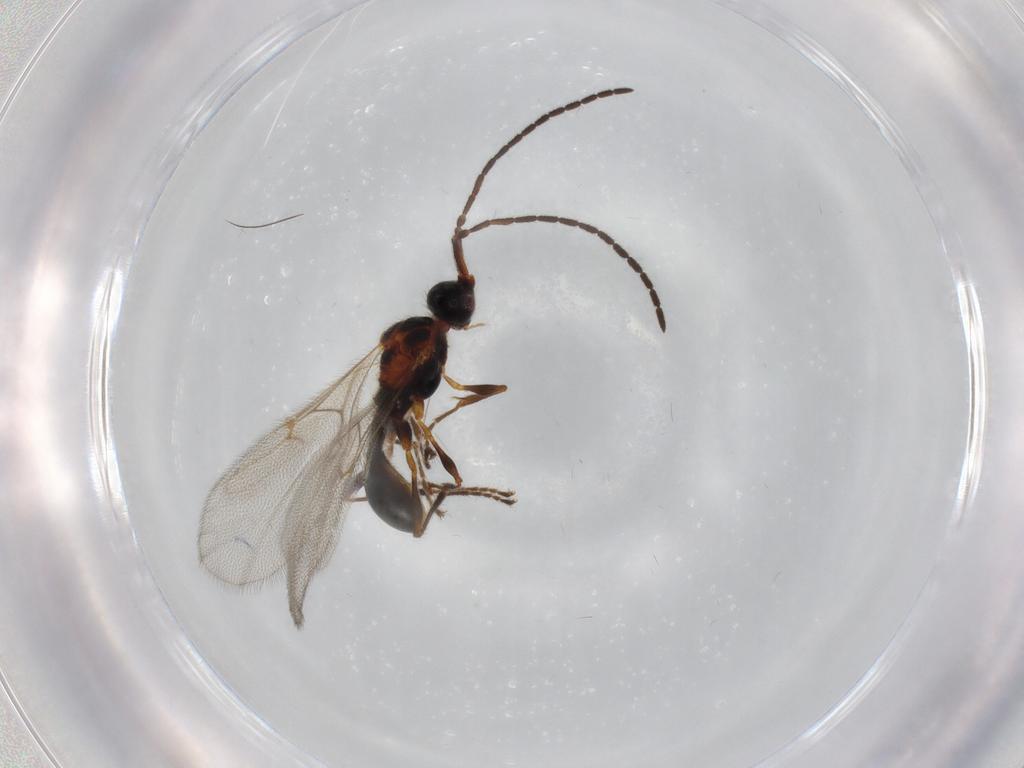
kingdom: Animalia
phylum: Arthropoda
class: Insecta
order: Hymenoptera
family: Diapriidae
